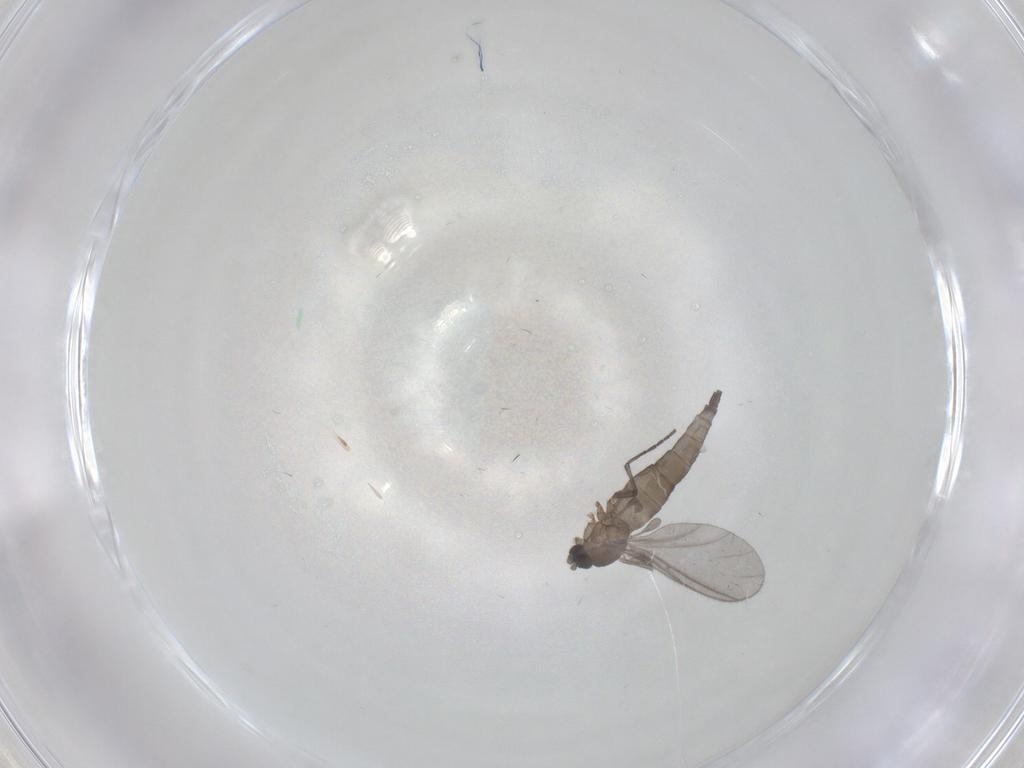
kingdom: Animalia
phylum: Arthropoda
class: Insecta
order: Diptera
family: Sciaridae
